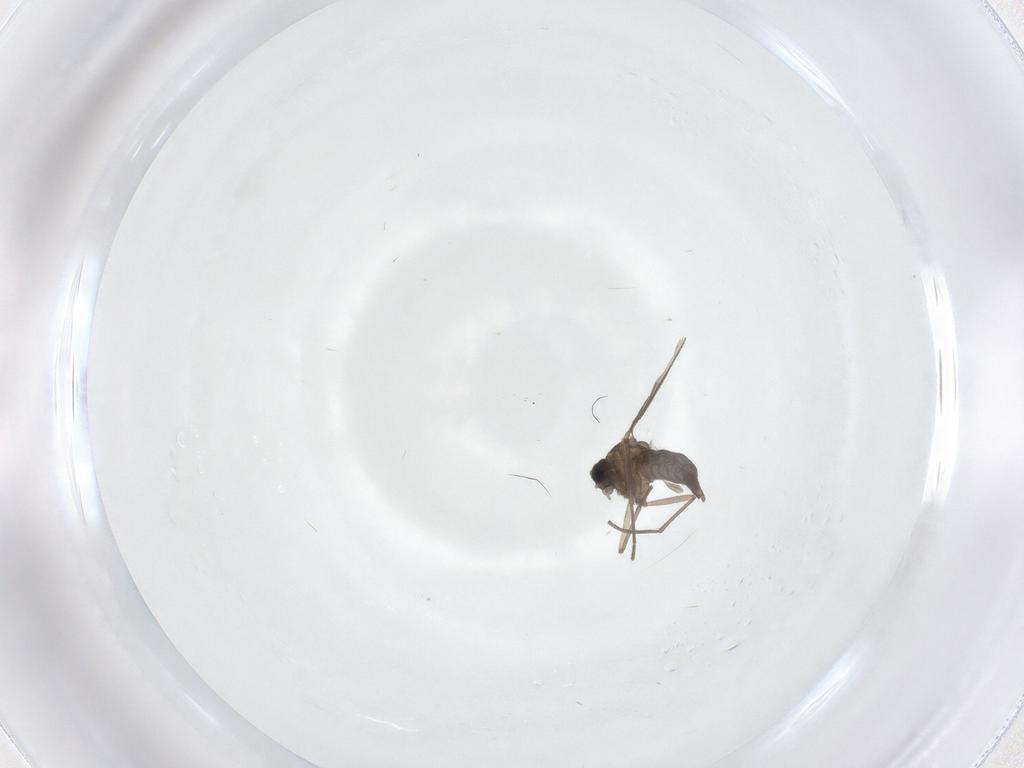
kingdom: Animalia
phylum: Arthropoda
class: Insecta
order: Diptera
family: Sciaridae
